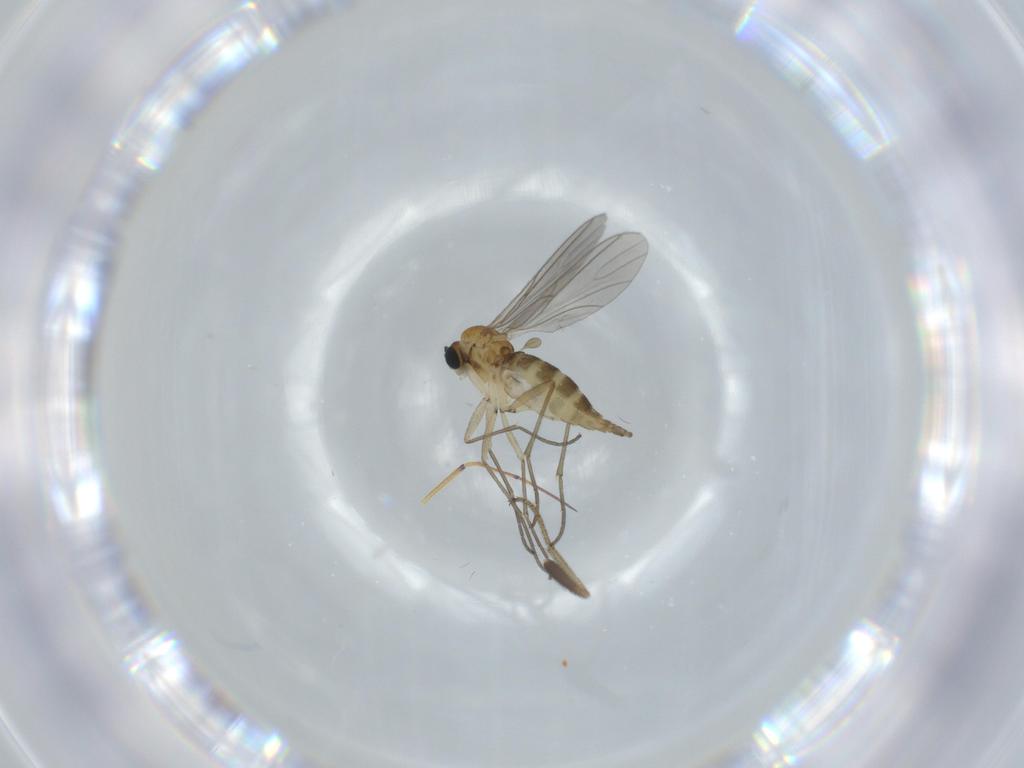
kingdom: Animalia
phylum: Arthropoda
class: Insecta
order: Diptera
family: Sciaridae
